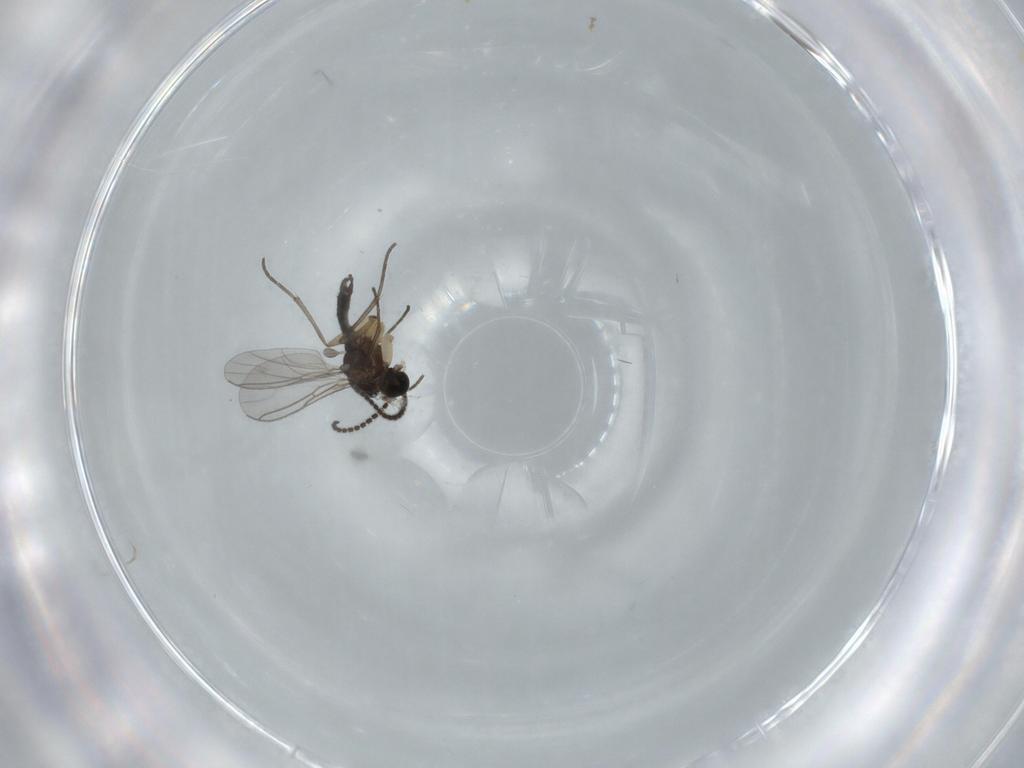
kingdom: Animalia
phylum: Arthropoda
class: Insecta
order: Diptera
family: Sciaridae
